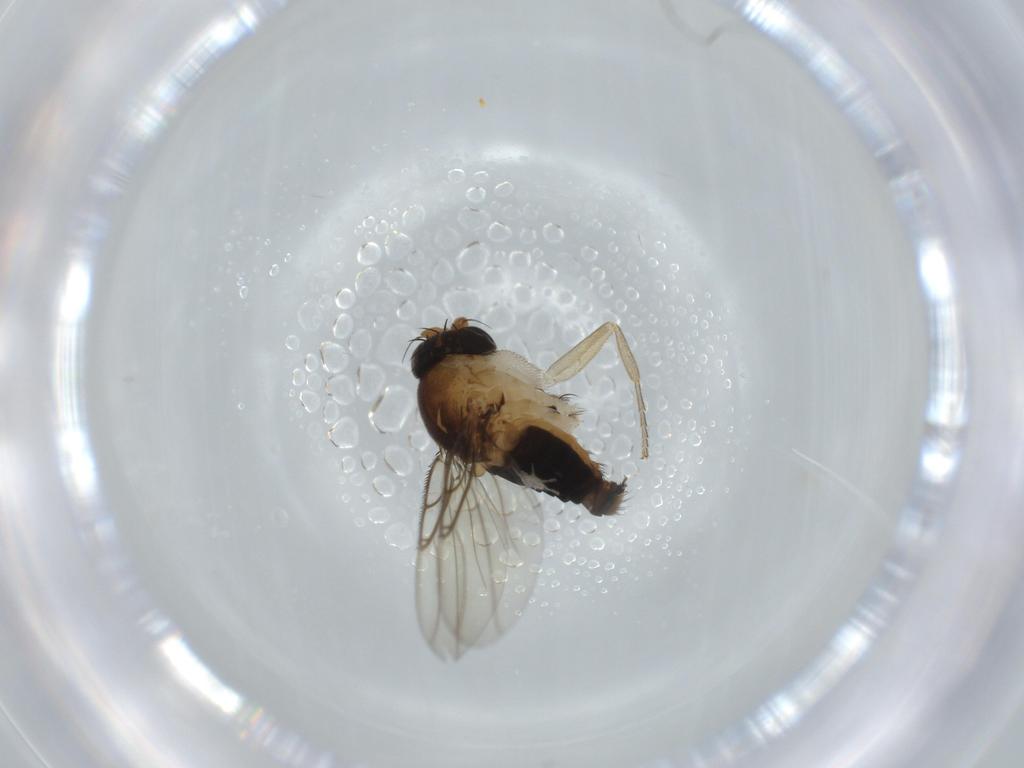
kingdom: Animalia
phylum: Arthropoda
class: Insecta
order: Diptera
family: Phoridae
